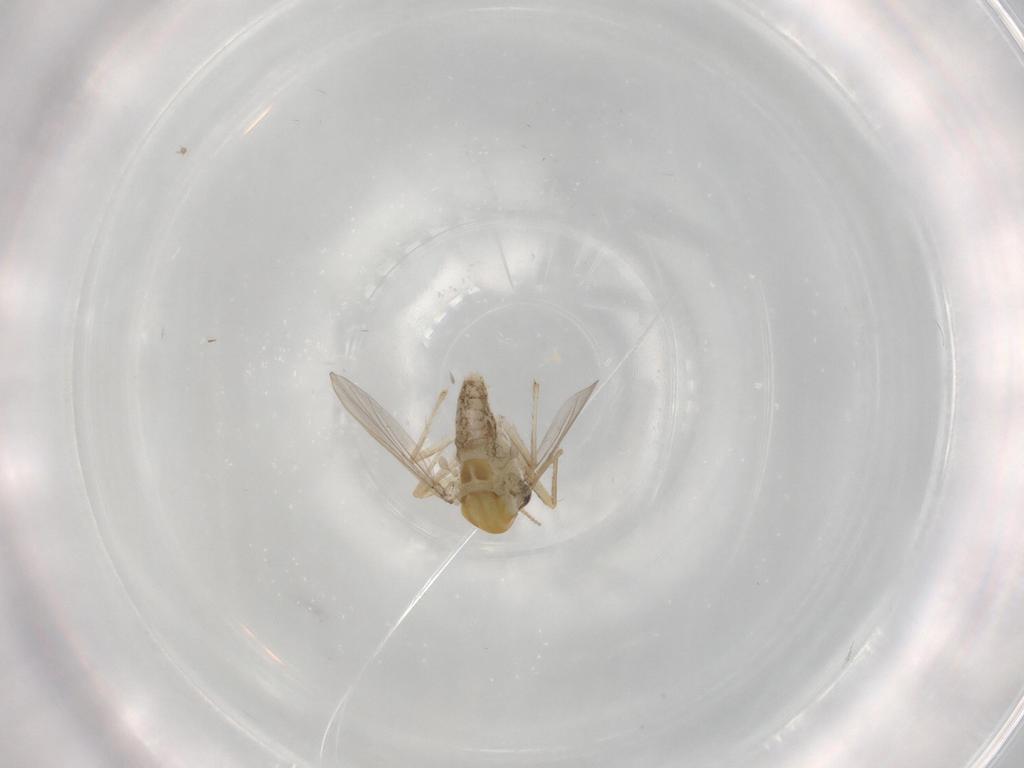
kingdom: Animalia
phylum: Arthropoda
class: Insecta
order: Diptera
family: Chironomidae
